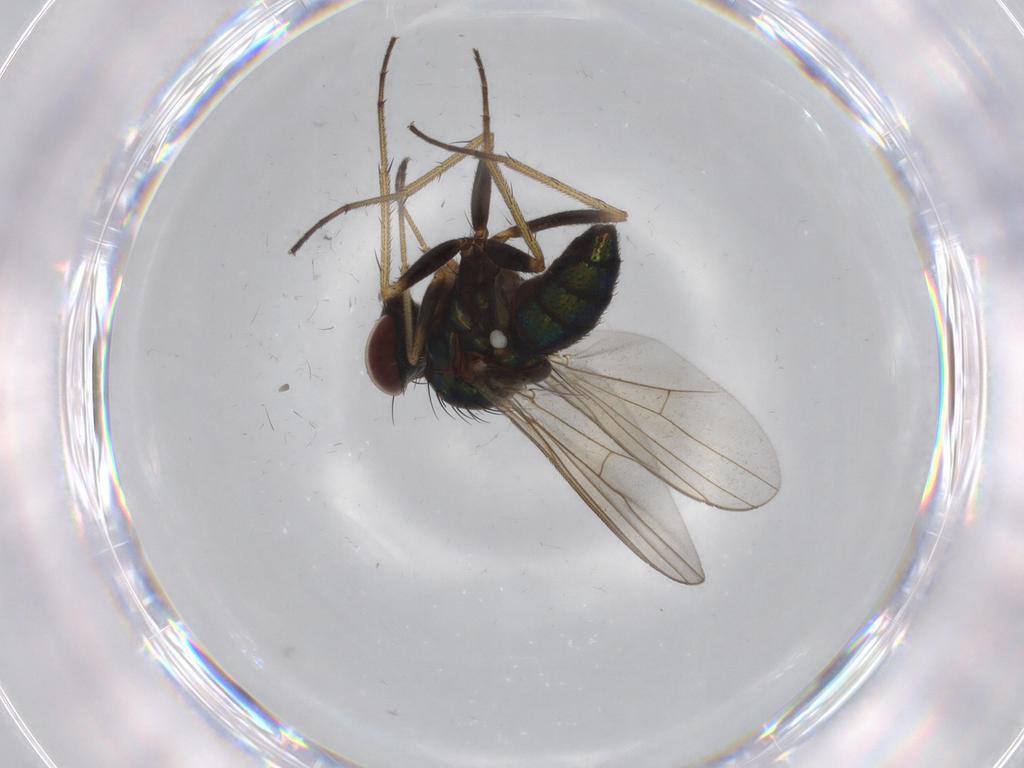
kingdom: Animalia
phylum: Arthropoda
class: Insecta
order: Diptera
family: Dolichopodidae
